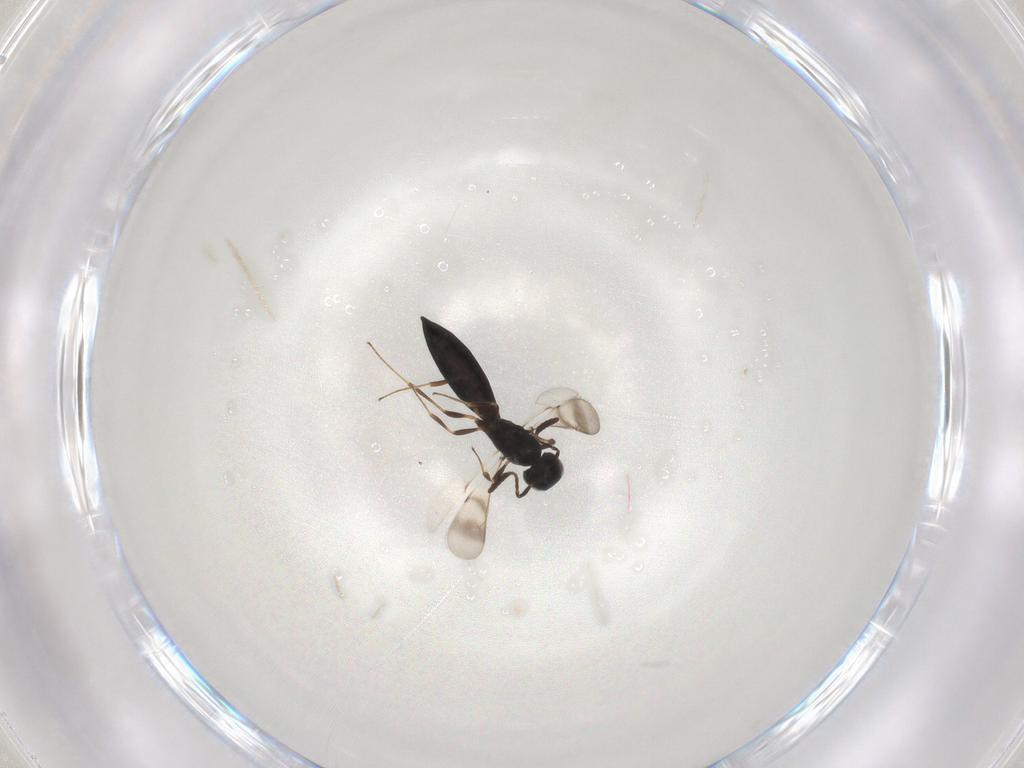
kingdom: Animalia
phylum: Arthropoda
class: Insecta
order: Hymenoptera
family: Scelionidae
